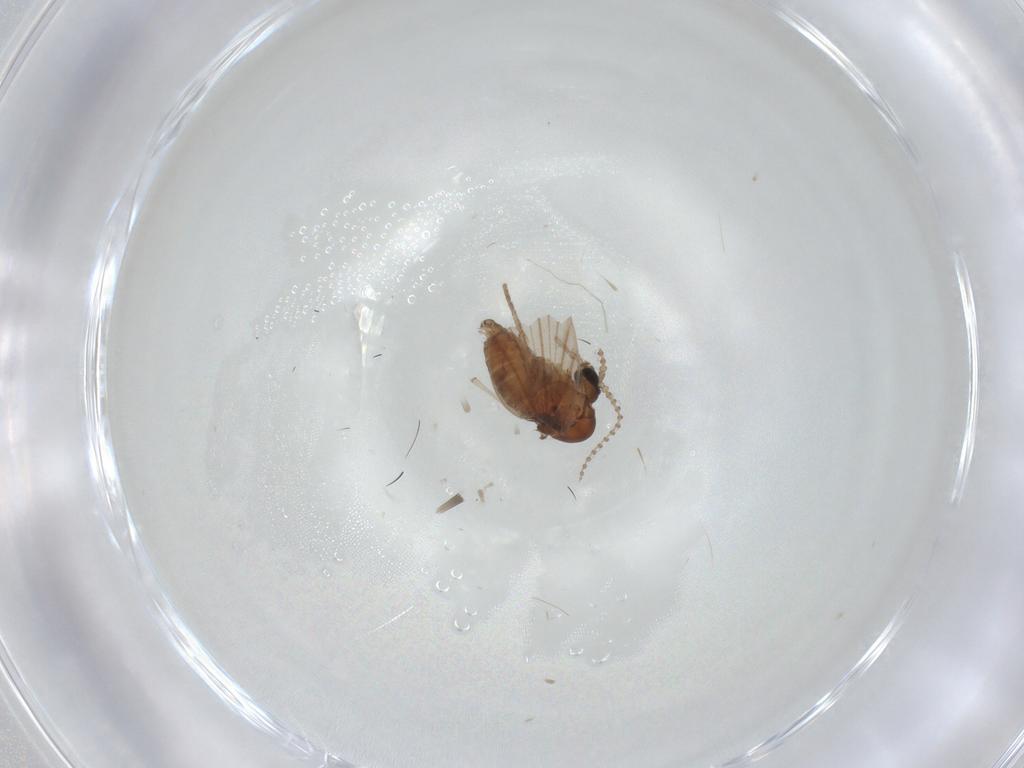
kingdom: Animalia
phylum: Arthropoda
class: Insecta
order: Diptera
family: Psychodidae
